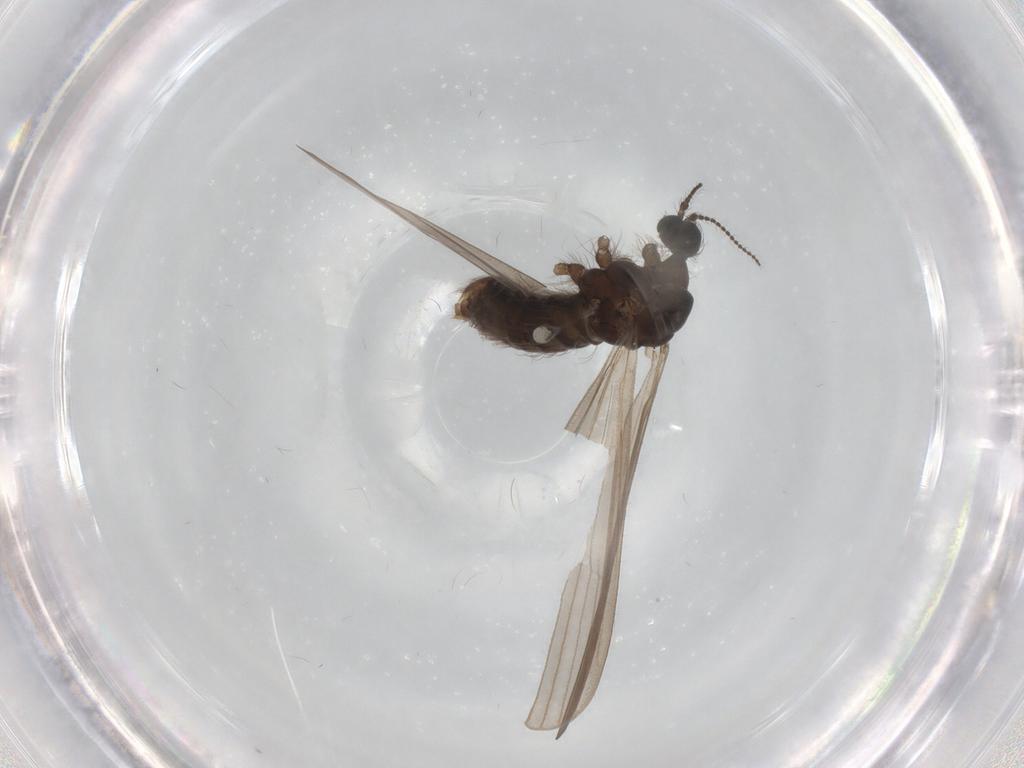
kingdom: Animalia
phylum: Arthropoda
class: Insecta
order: Diptera
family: Limoniidae
